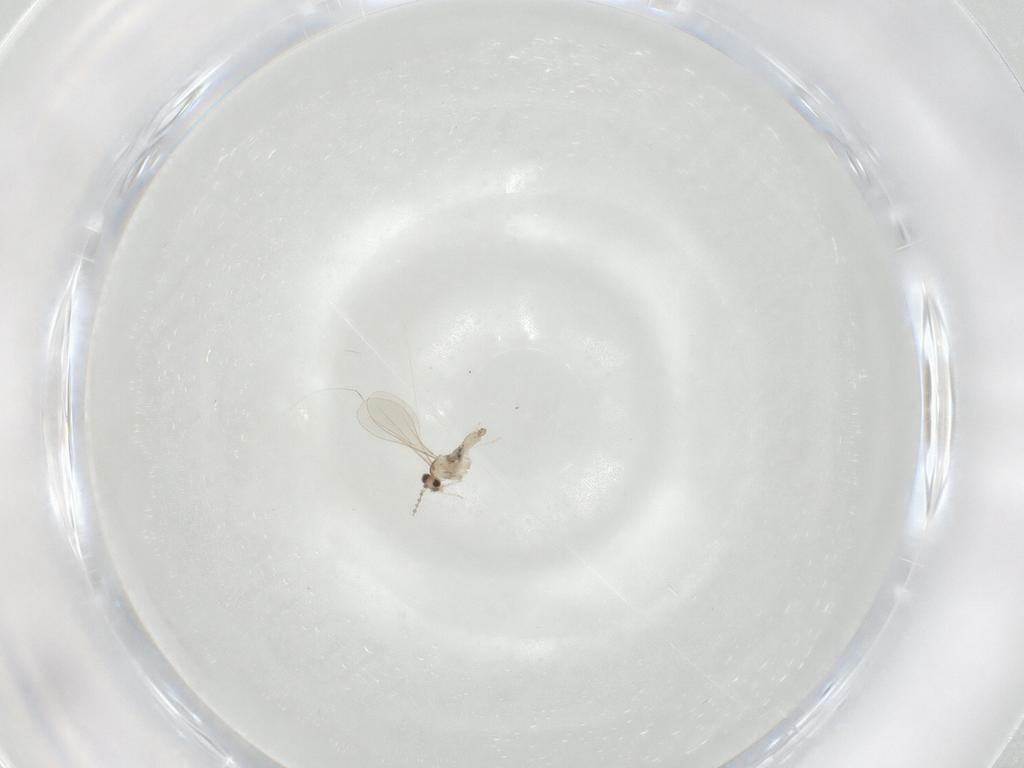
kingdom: Animalia
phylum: Arthropoda
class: Insecta
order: Diptera
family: Cecidomyiidae
